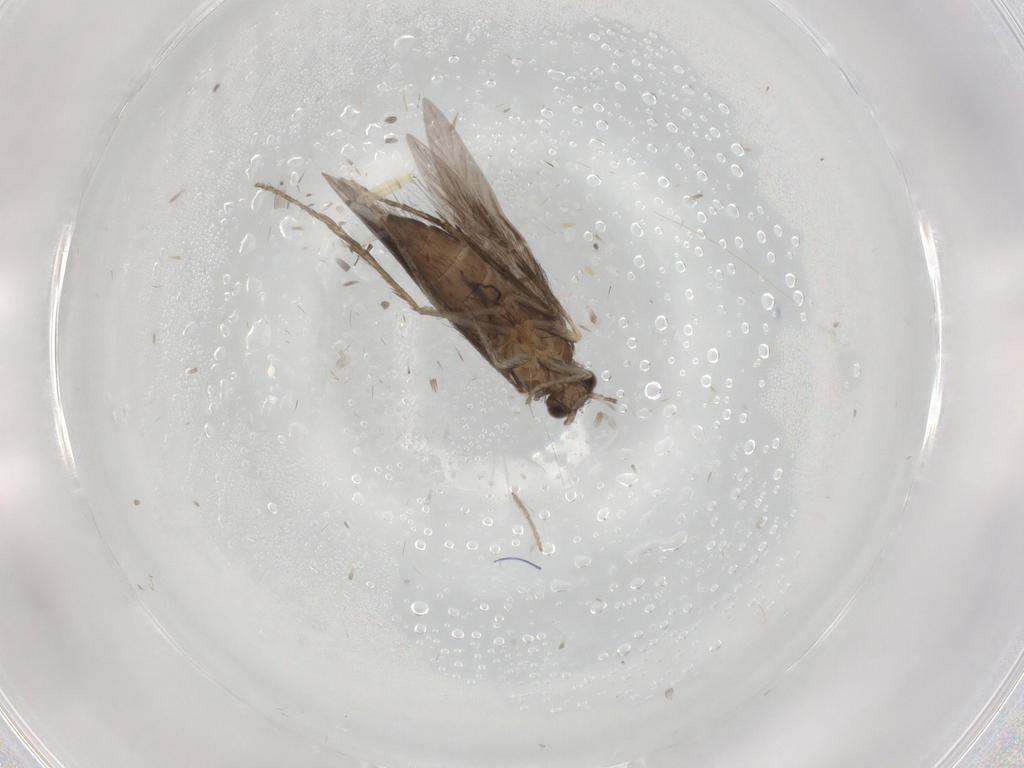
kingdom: Animalia
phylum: Arthropoda
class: Insecta
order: Trichoptera
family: Hydroptilidae
